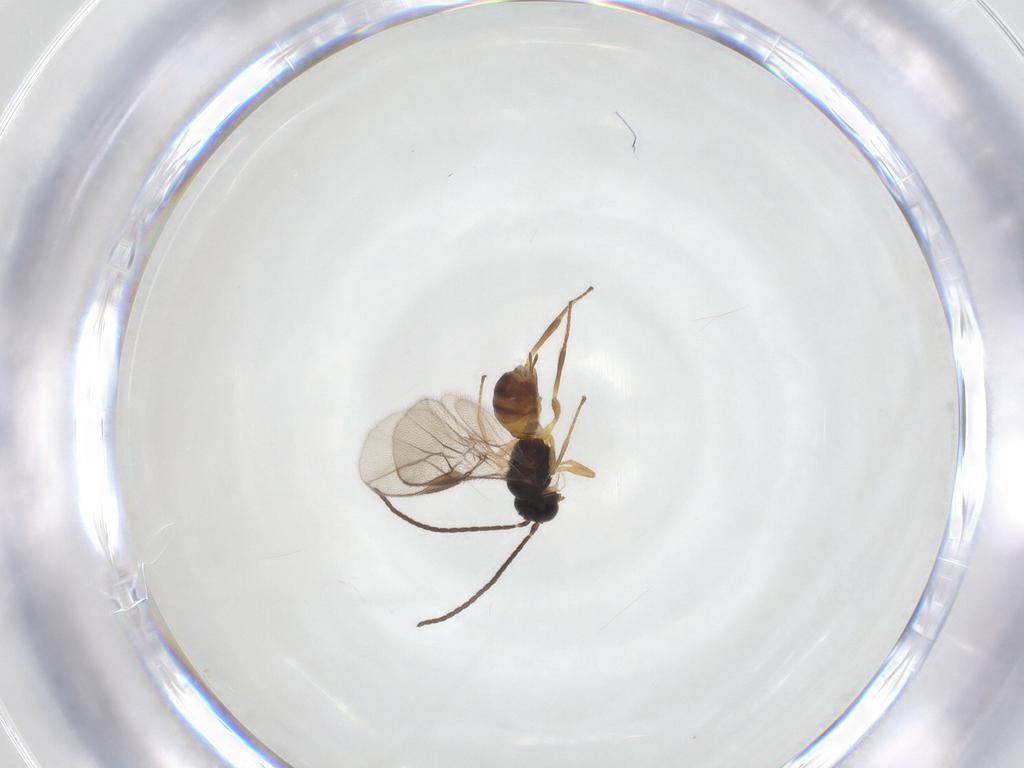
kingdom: Animalia
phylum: Arthropoda
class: Insecta
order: Hymenoptera
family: Braconidae
